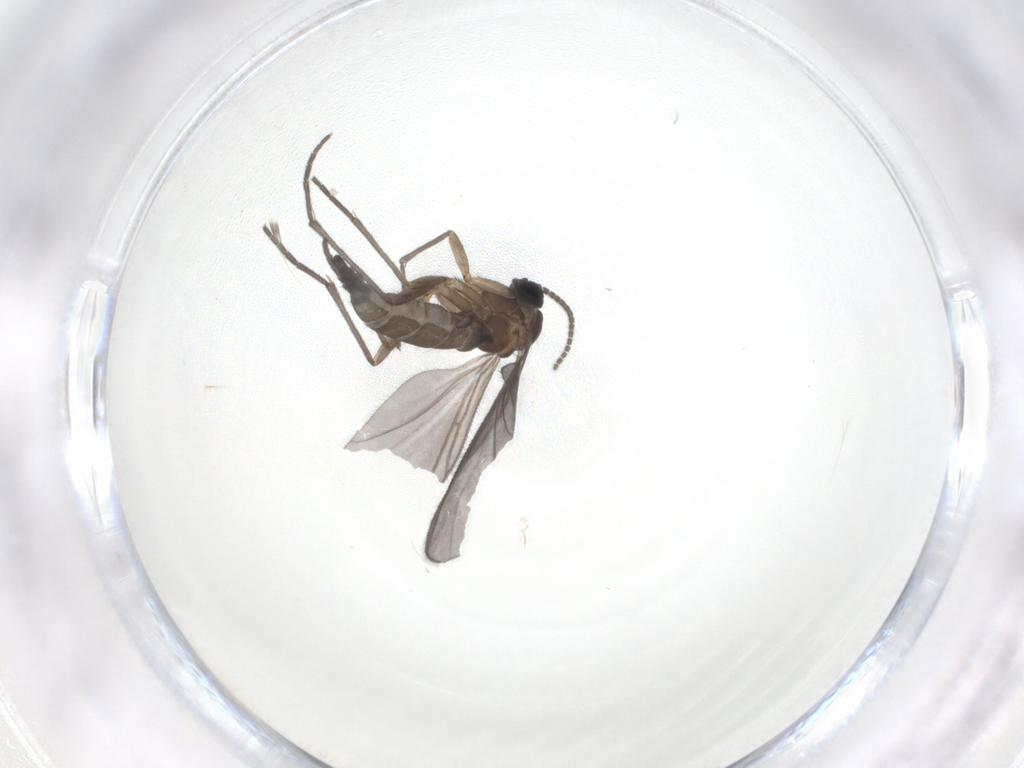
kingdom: Animalia
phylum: Arthropoda
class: Insecta
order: Diptera
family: Sciaridae
